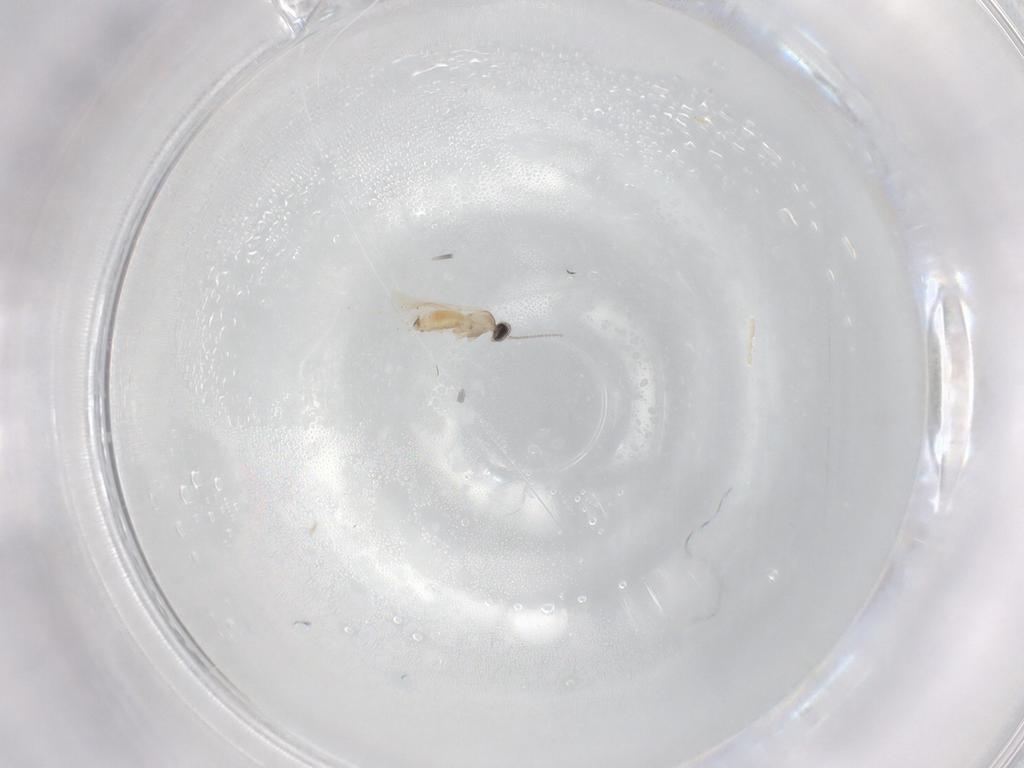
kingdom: Animalia
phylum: Arthropoda
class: Insecta
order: Diptera
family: Cecidomyiidae
